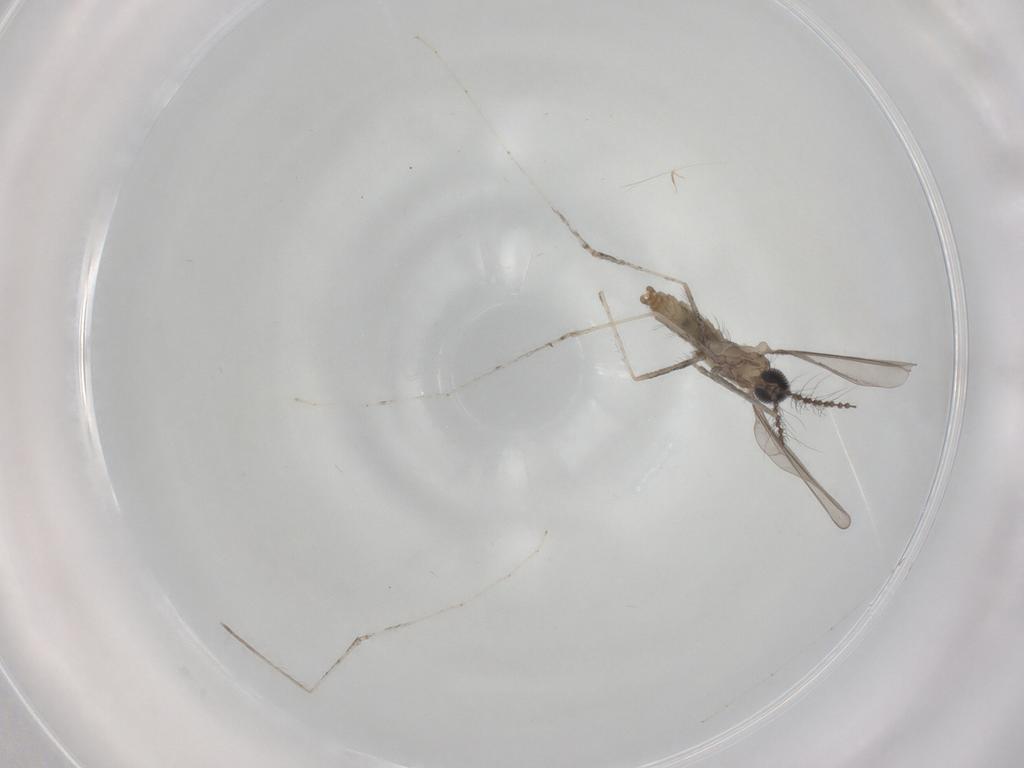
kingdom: Animalia
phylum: Arthropoda
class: Insecta
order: Diptera
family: Cecidomyiidae
